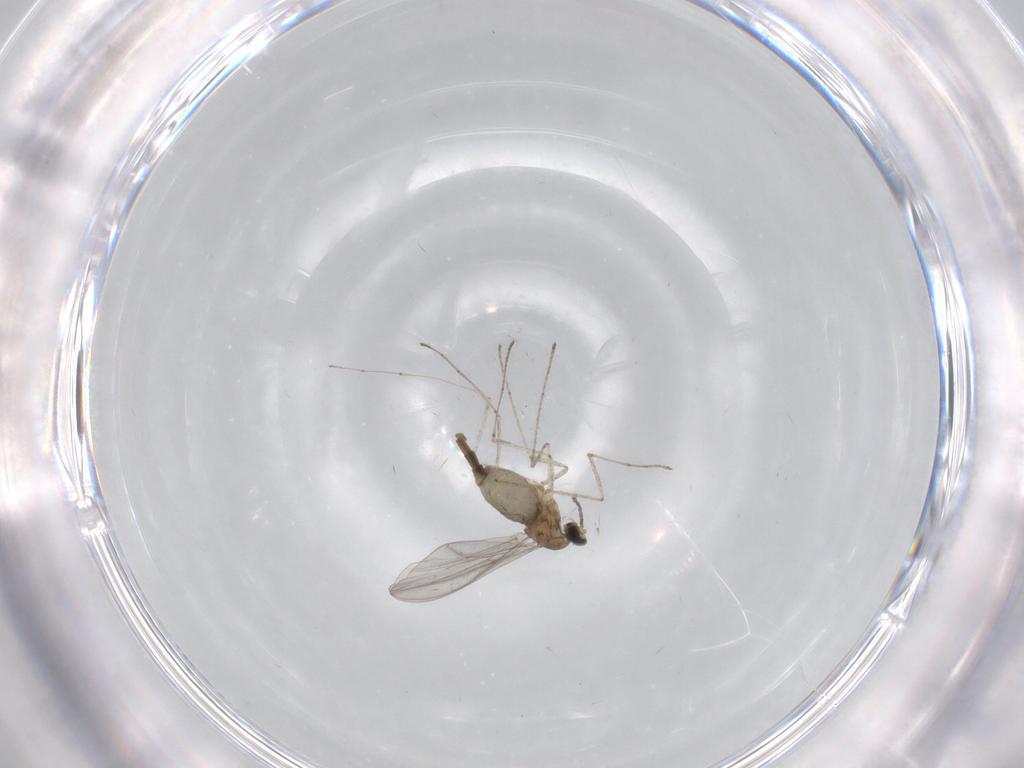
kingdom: Animalia
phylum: Arthropoda
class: Insecta
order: Diptera
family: Cecidomyiidae
